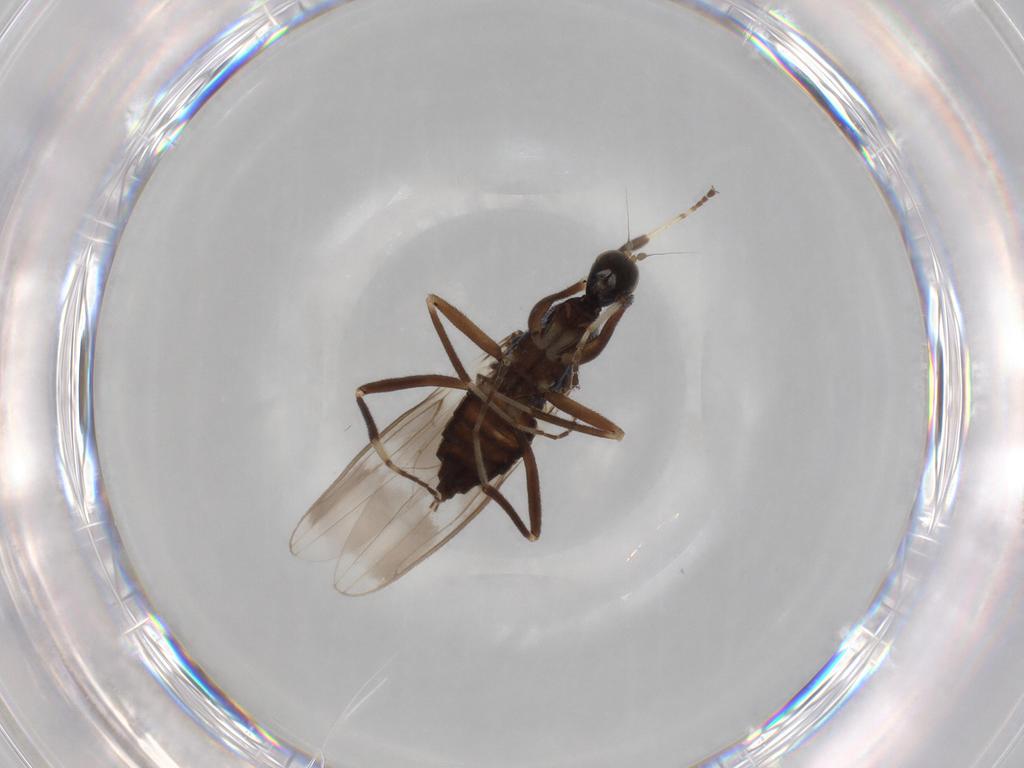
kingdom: Animalia
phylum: Arthropoda
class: Insecta
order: Diptera
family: Hybotidae
